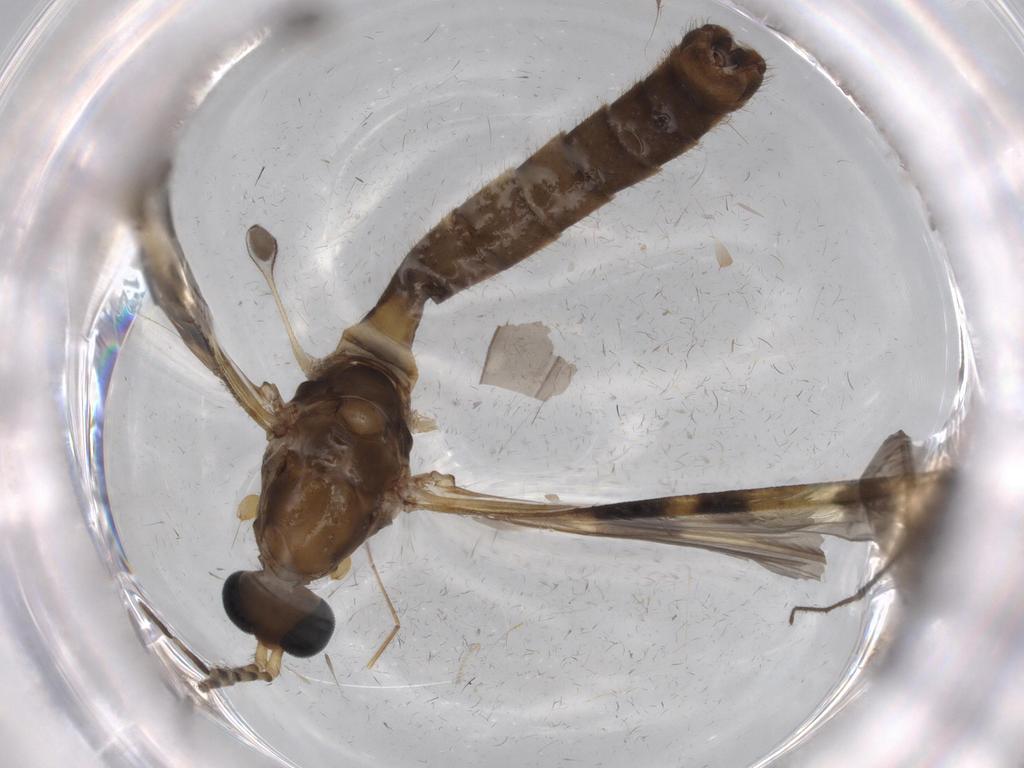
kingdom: Animalia
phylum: Arthropoda
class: Insecta
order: Diptera
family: Chironomidae
